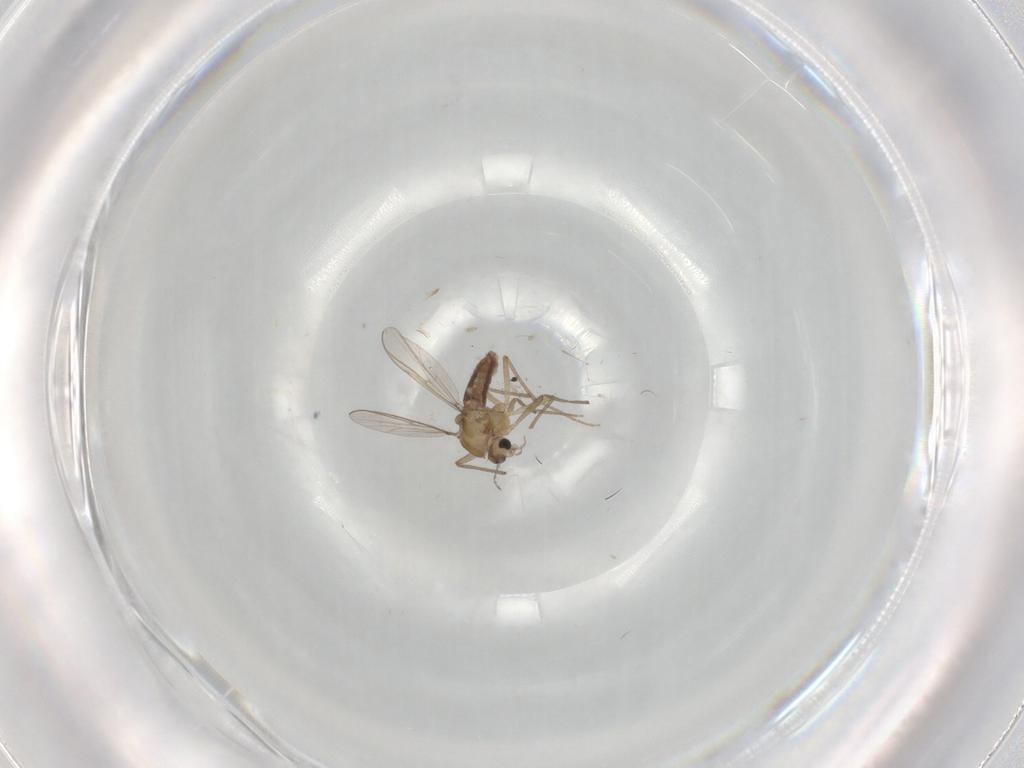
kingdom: Animalia
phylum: Arthropoda
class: Insecta
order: Diptera
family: Chironomidae
